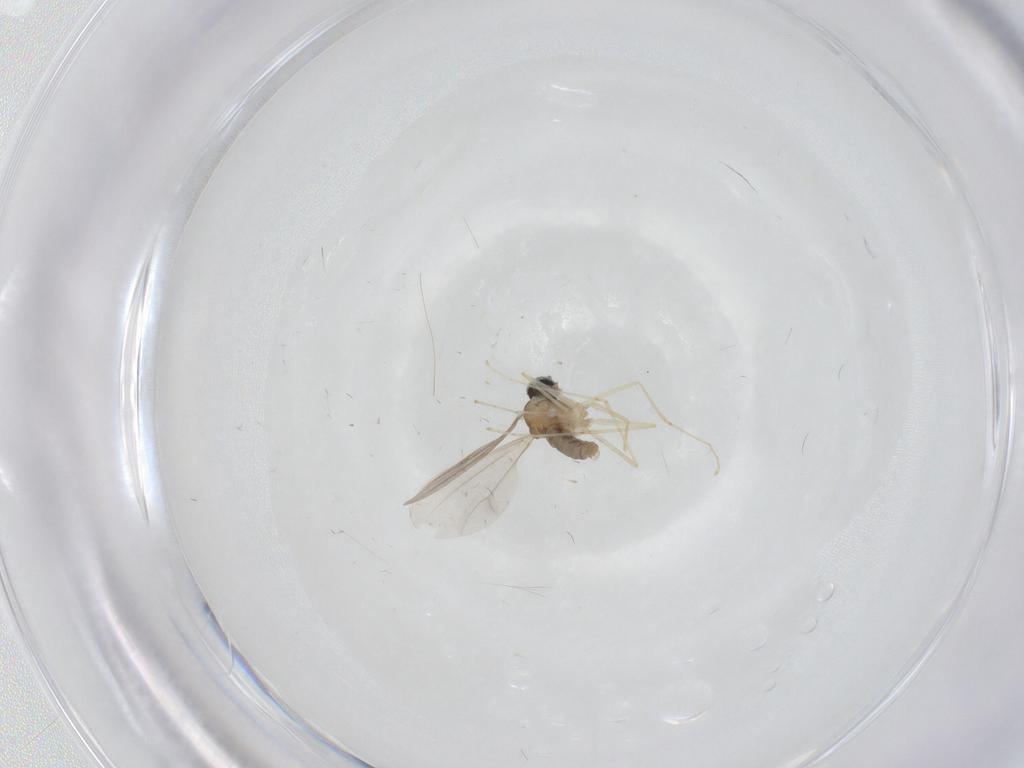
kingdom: Animalia
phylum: Arthropoda
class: Insecta
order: Diptera
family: Cecidomyiidae
